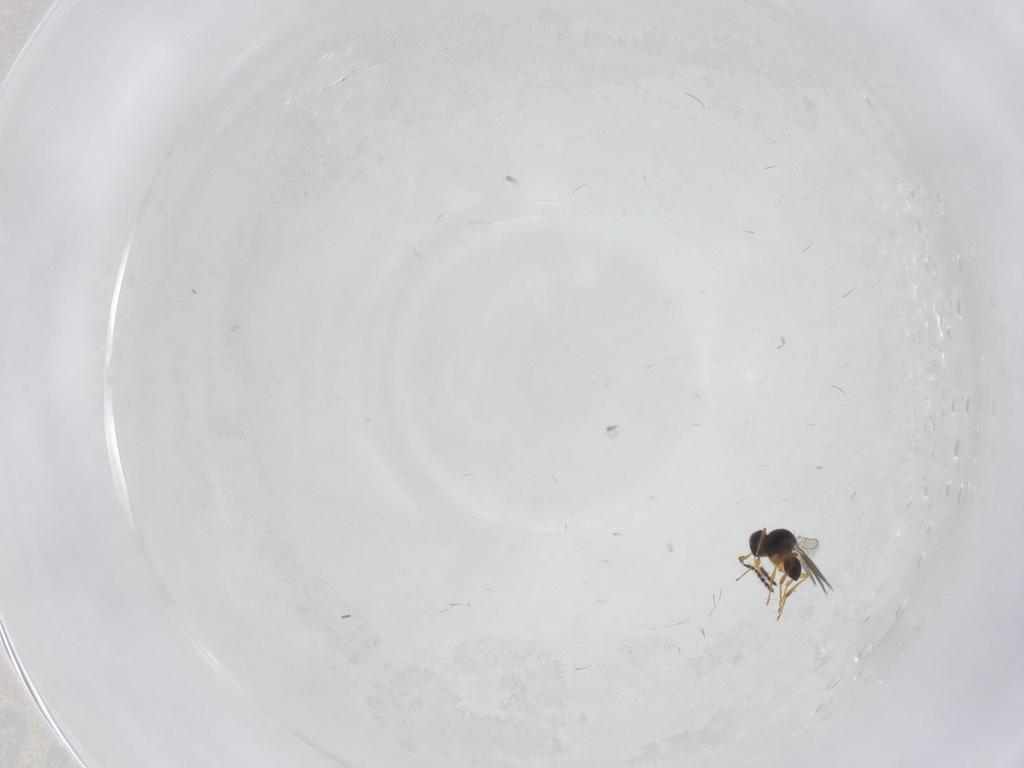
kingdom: Animalia
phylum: Arthropoda
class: Insecta
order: Hymenoptera
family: Platygastridae
